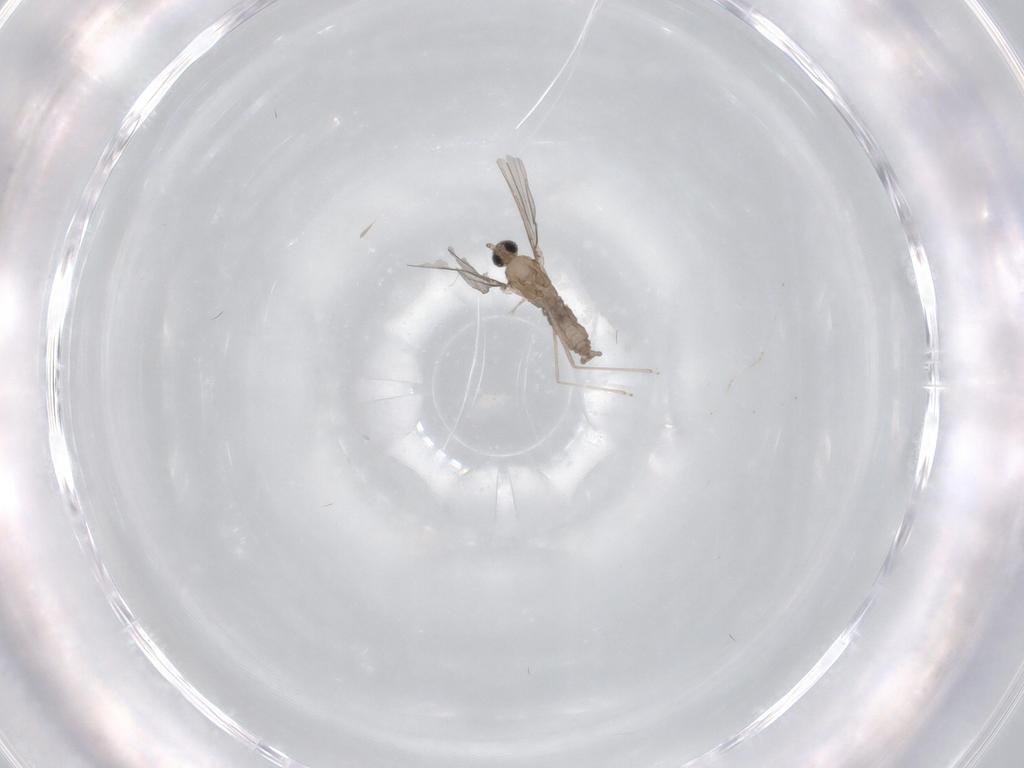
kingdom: Animalia
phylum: Arthropoda
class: Insecta
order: Diptera
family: Cecidomyiidae
